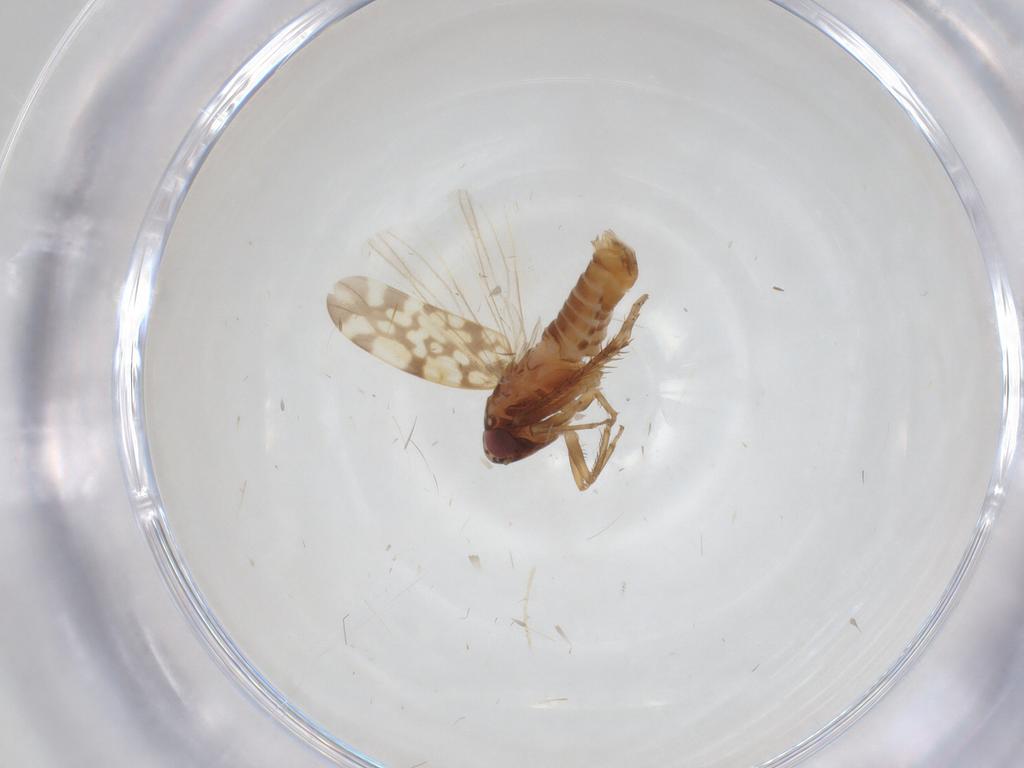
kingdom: Animalia
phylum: Arthropoda
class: Insecta
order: Hemiptera
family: Cicadellidae
